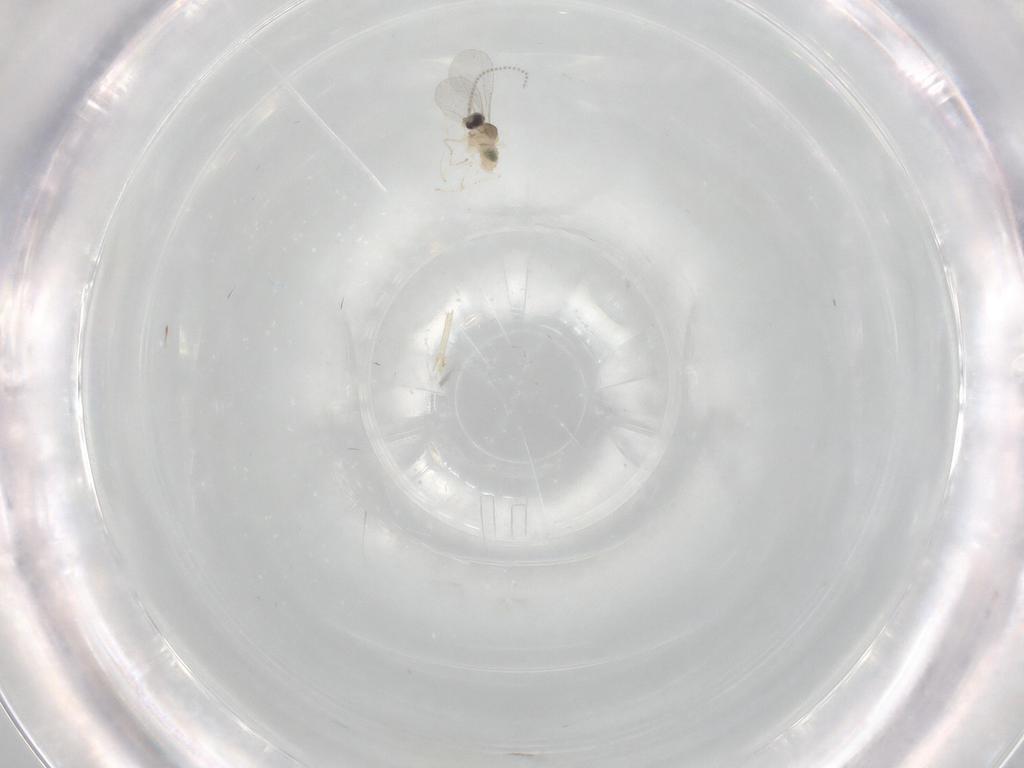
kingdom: Animalia
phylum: Arthropoda
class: Insecta
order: Diptera
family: Cecidomyiidae
